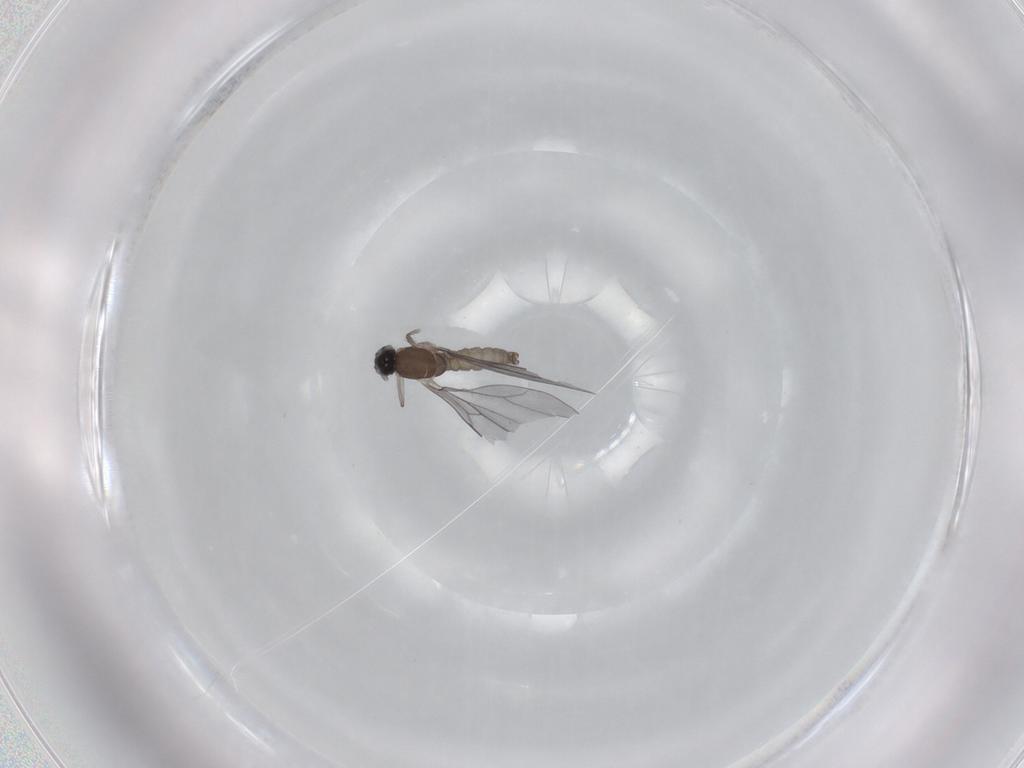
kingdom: Animalia
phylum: Arthropoda
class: Insecta
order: Diptera
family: Cecidomyiidae
